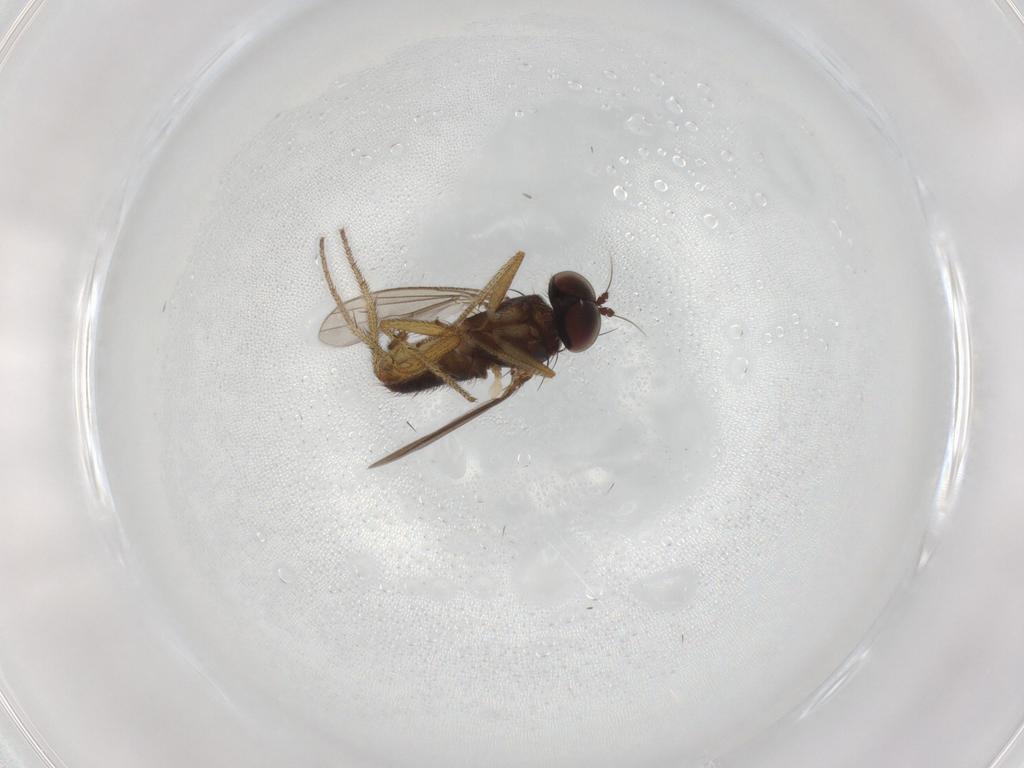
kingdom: Animalia
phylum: Arthropoda
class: Insecta
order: Diptera
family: Dolichopodidae
